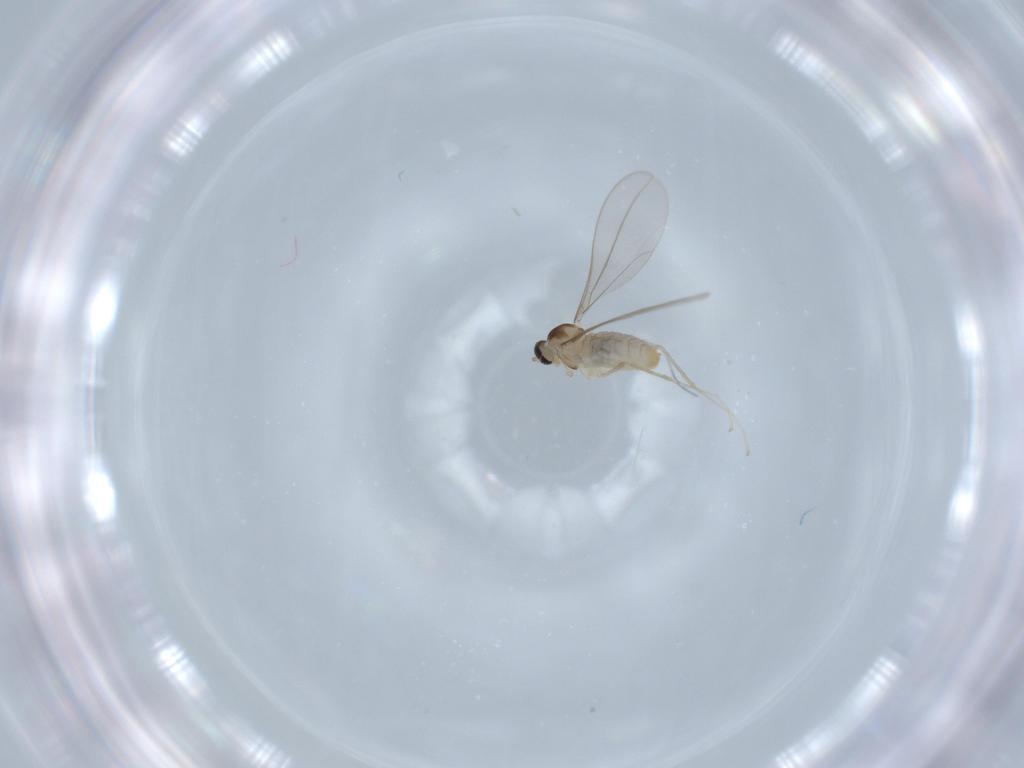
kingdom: Animalia
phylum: Arthropoda
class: Insecta
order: Diptera
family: Cecidomyiidae
